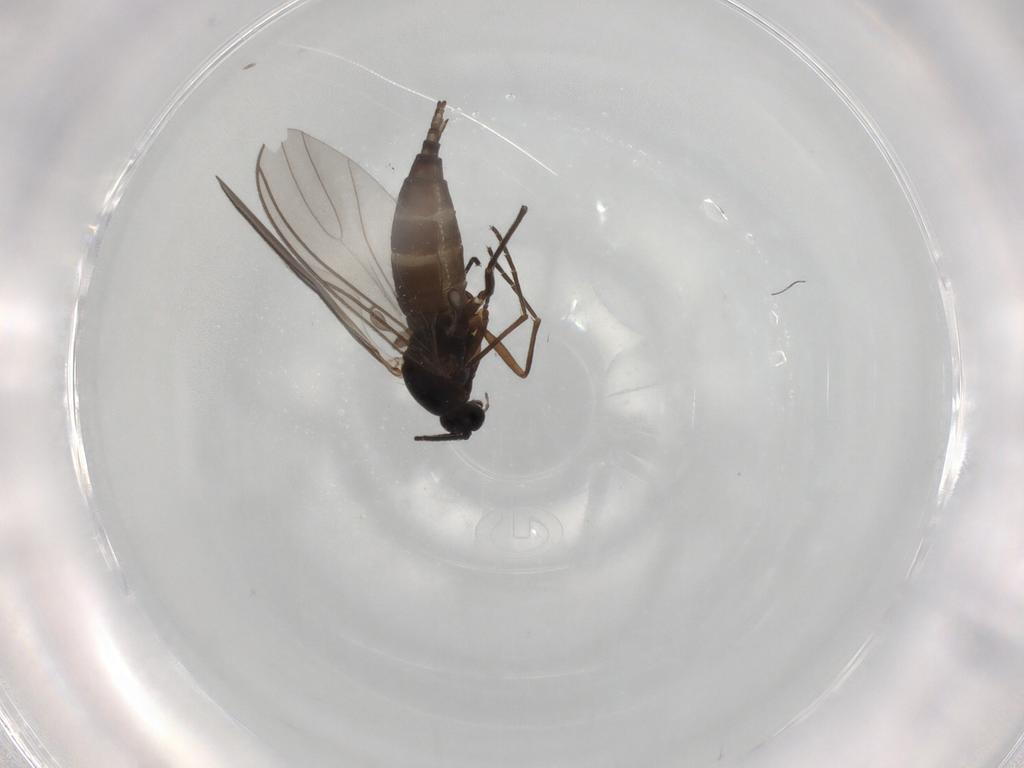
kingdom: Animalia
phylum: Arthropoda
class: Insecta
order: Diptera
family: Sciaridae
